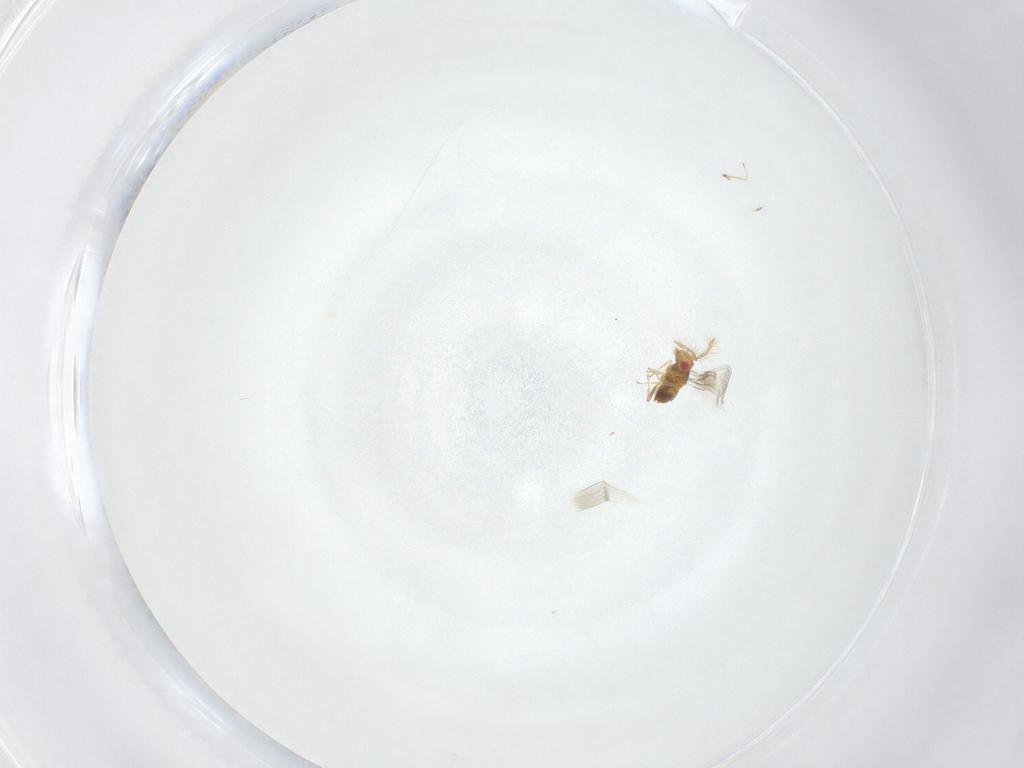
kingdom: Animalia
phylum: Arthropoda
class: Insecta
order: Hymenoptera
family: Trichogrammatidae
